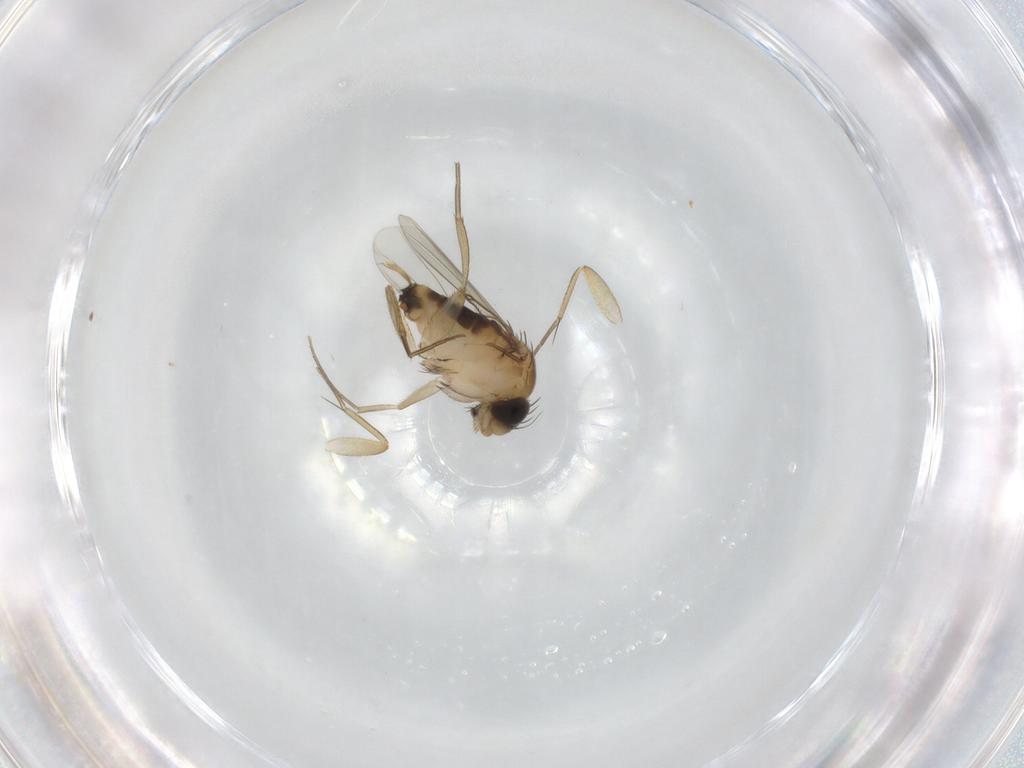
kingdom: Animalia
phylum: Arthropoda
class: Insecta
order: Diptera
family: Phoridae
